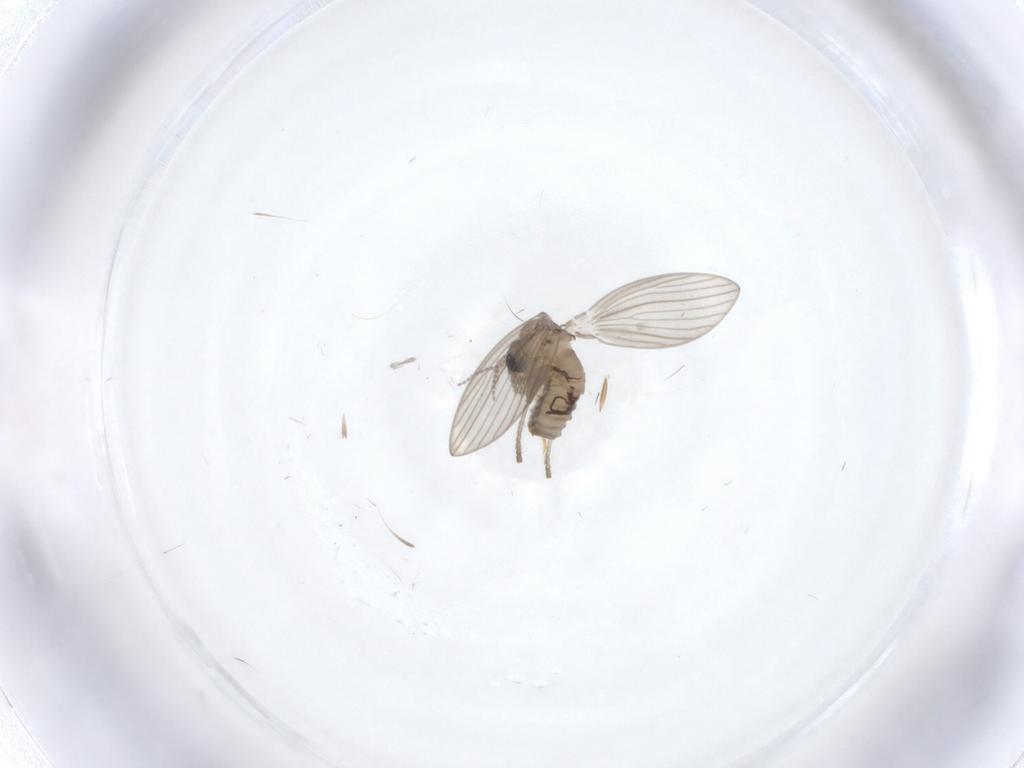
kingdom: Animalia
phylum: Arthropoda
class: Insecta
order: Diptera
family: Psychodidae
